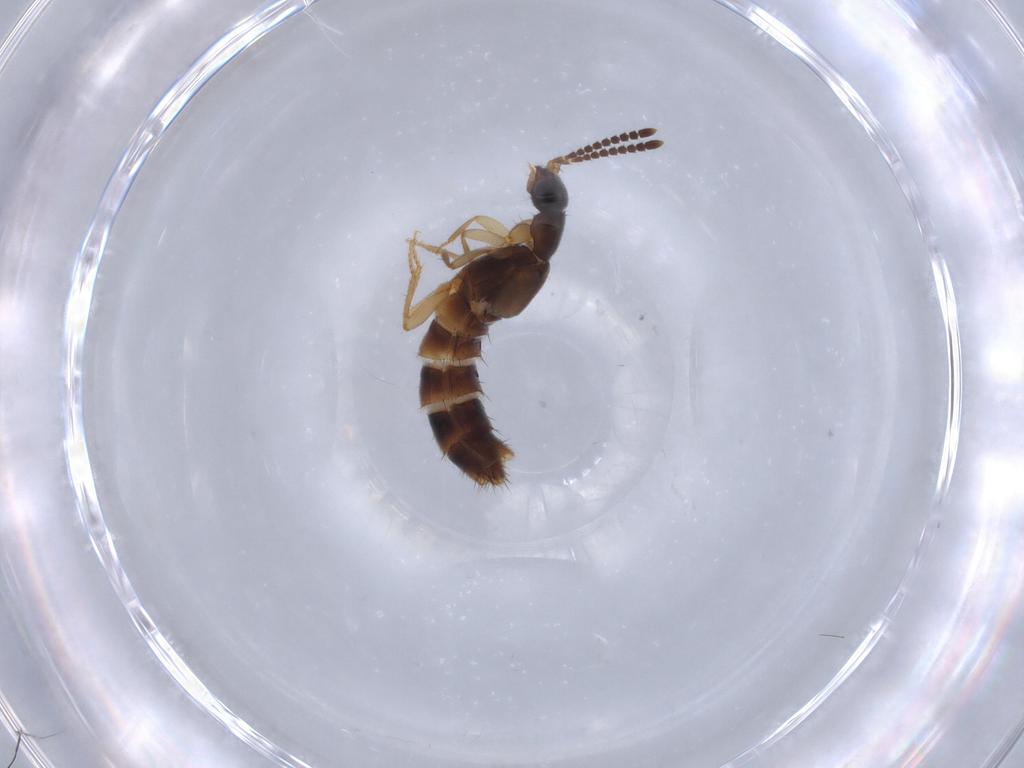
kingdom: Animalia
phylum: Arthropoda
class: Insecta
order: Coleoptera
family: Staphylinidae
